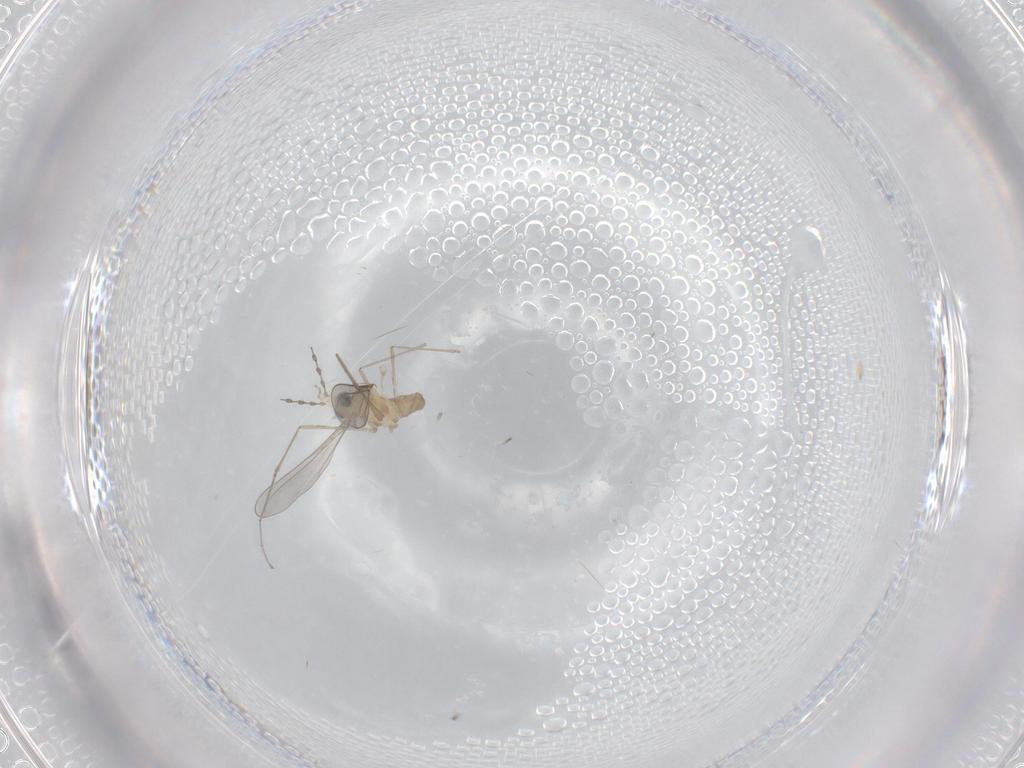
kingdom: Animalia
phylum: Arthropoda
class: Insecta
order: Diptera
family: Cecidomyiidae
